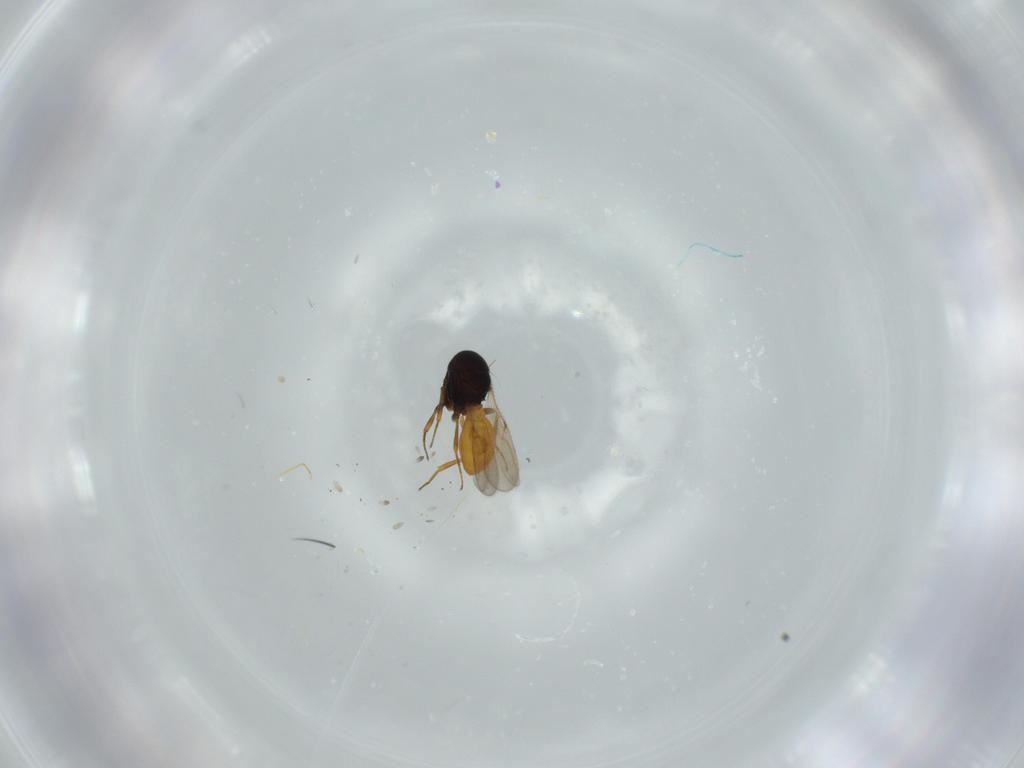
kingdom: Animalia
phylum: Arthropoda
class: Insecta
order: Hymenoptera
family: Scelionidae
